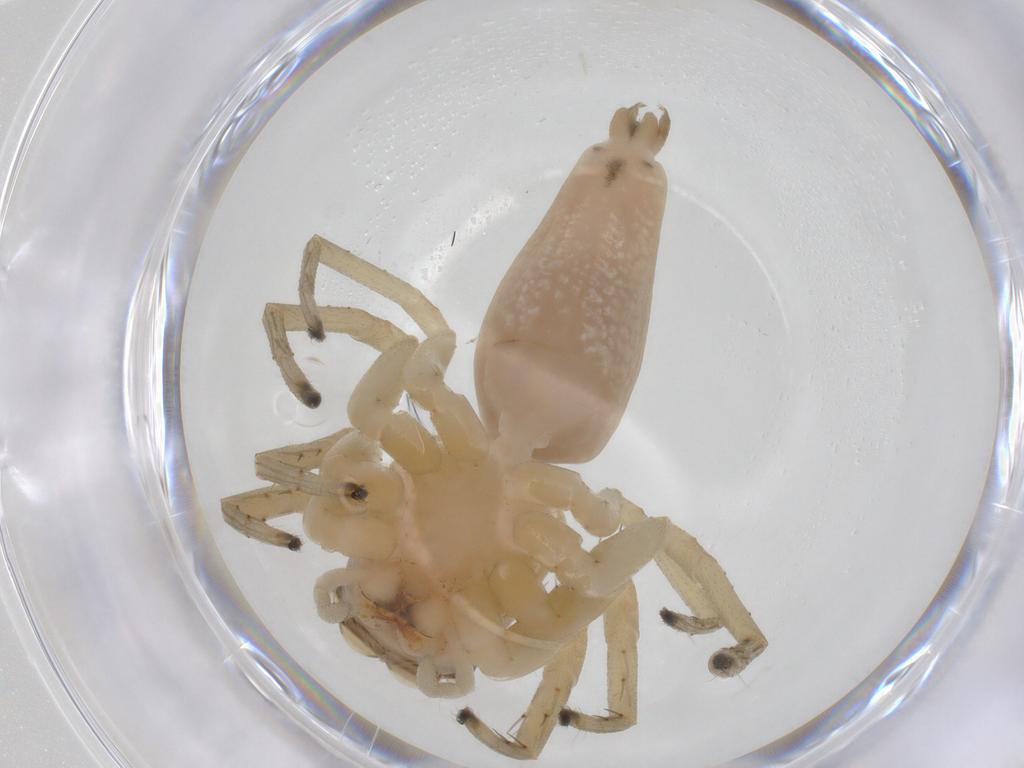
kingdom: Animalia
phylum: Arthropoda
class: Arachnida
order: Araneae
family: Salticidae
